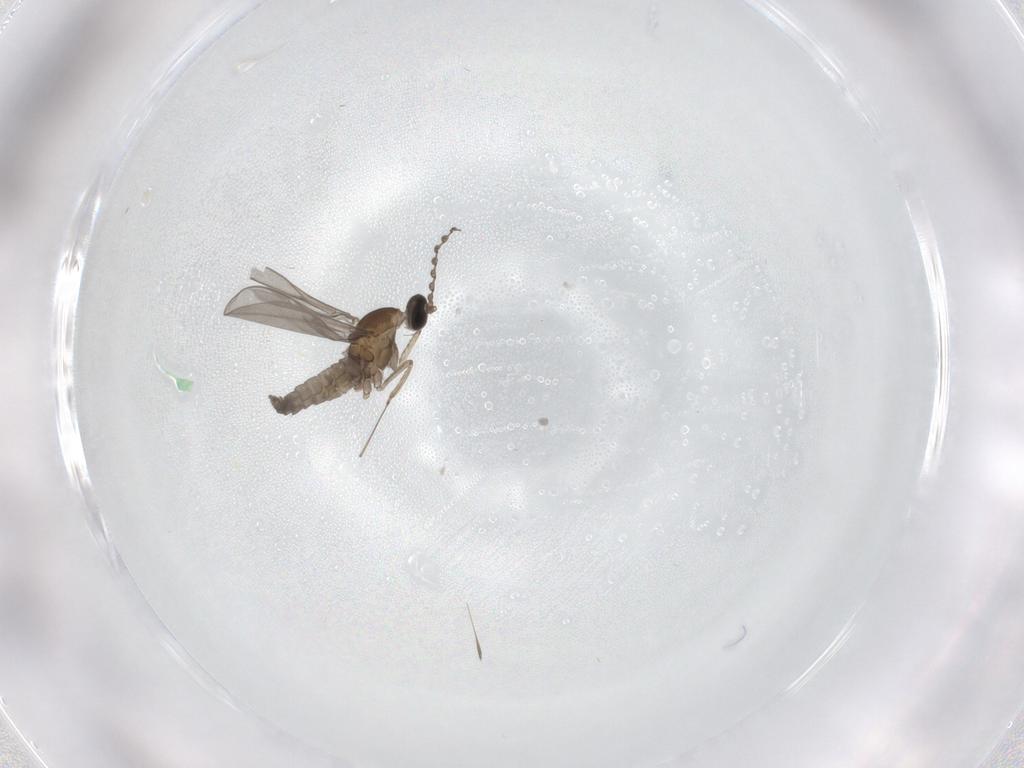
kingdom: Animalia
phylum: Arthropoda
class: Insecta
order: Diptera
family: Cecidomyiidae
